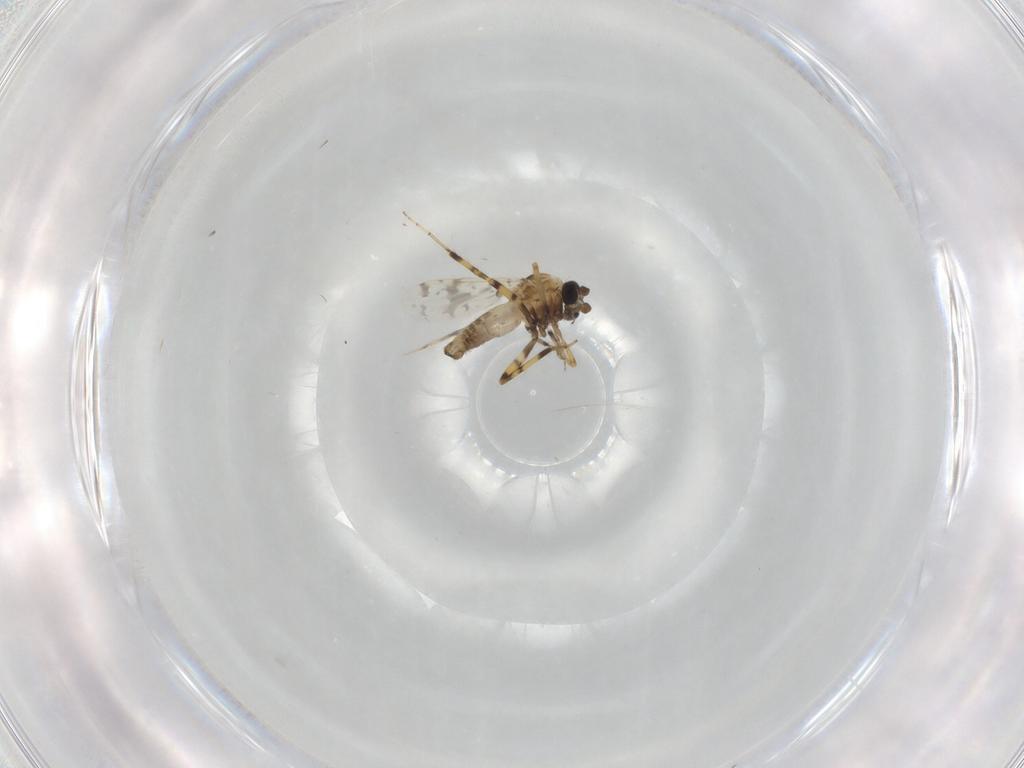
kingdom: Animalia
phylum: Arthropoda
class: Insecta
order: Diptera
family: Ceratopogonidae
